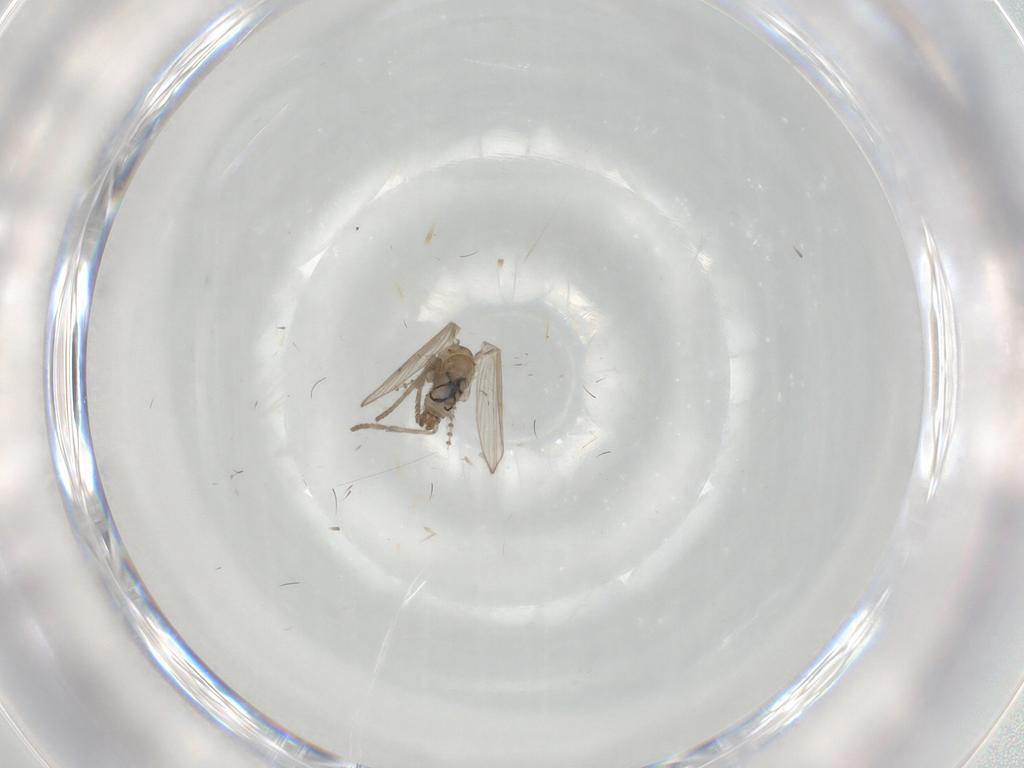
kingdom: Animalia
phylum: Arthropoda
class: Insecta
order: Diptera
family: Psychodidae
